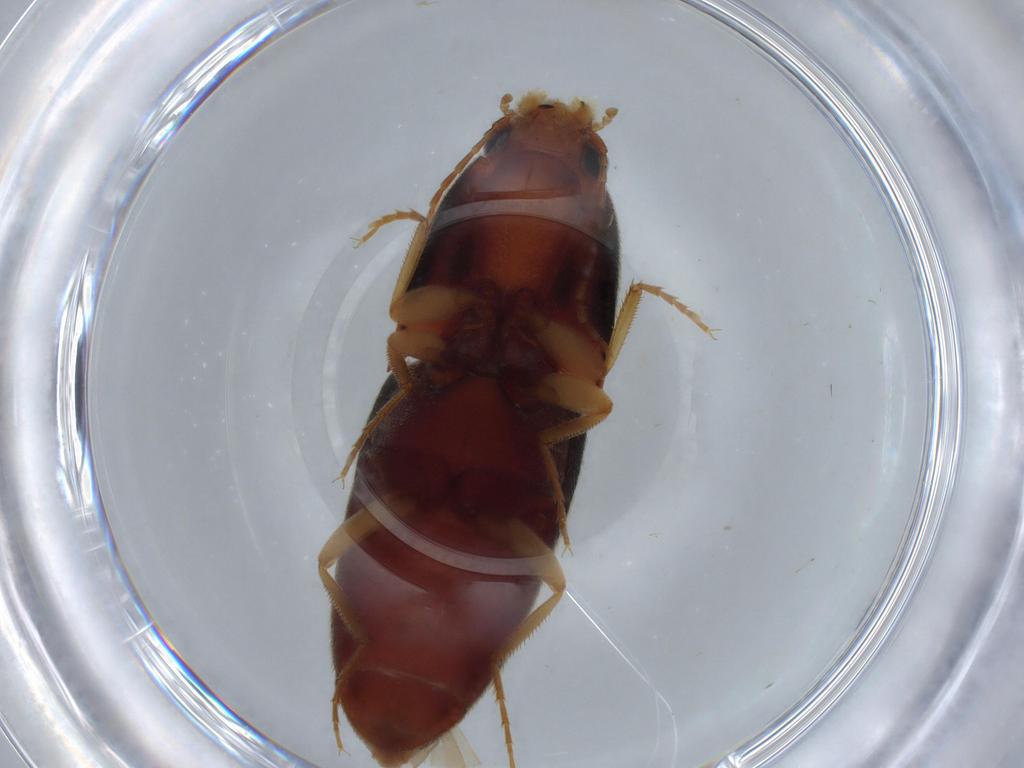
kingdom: Animalia
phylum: Arthropoda
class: Insecta
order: Coleoptera
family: Elateridae
